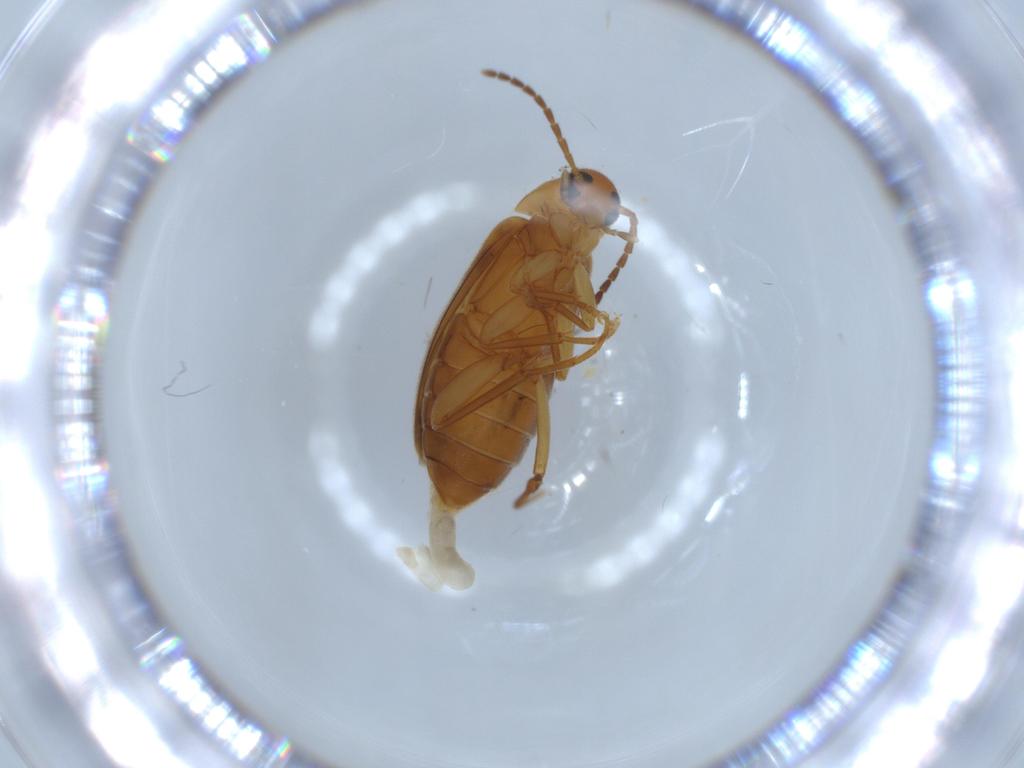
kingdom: Animalia
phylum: Arthropoda
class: Insecta
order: Coleoptera
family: Scraptiidae
